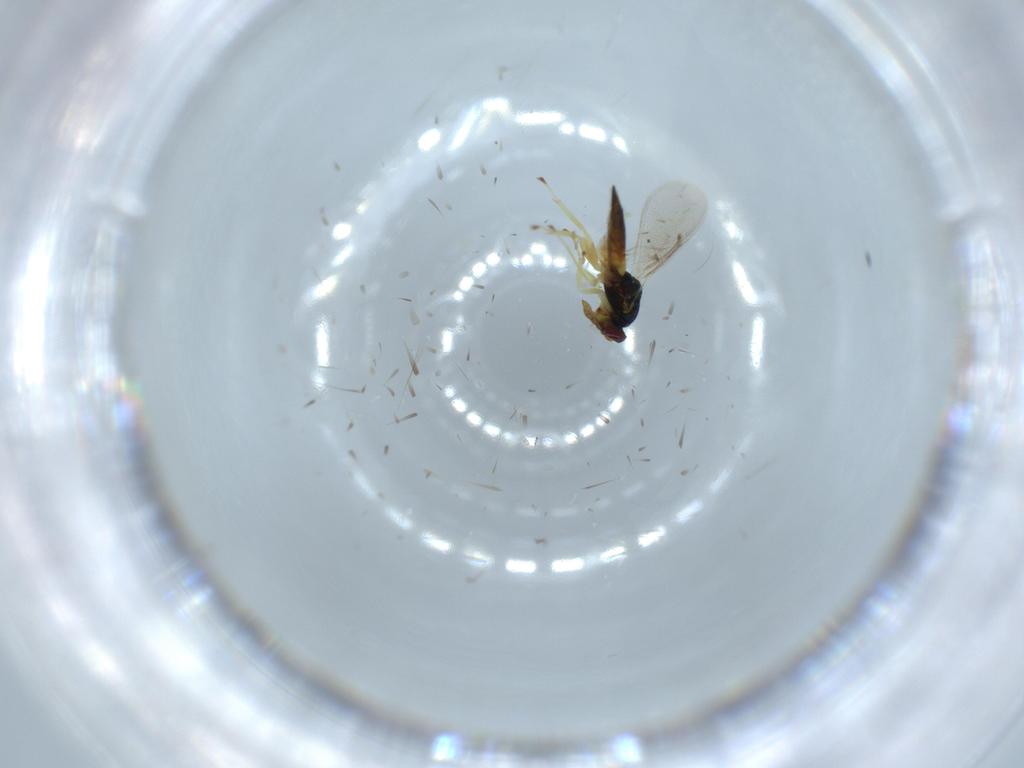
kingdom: Animalia
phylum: Arthropoda
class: Insecta
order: Hymenoptera
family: Eulophidae
